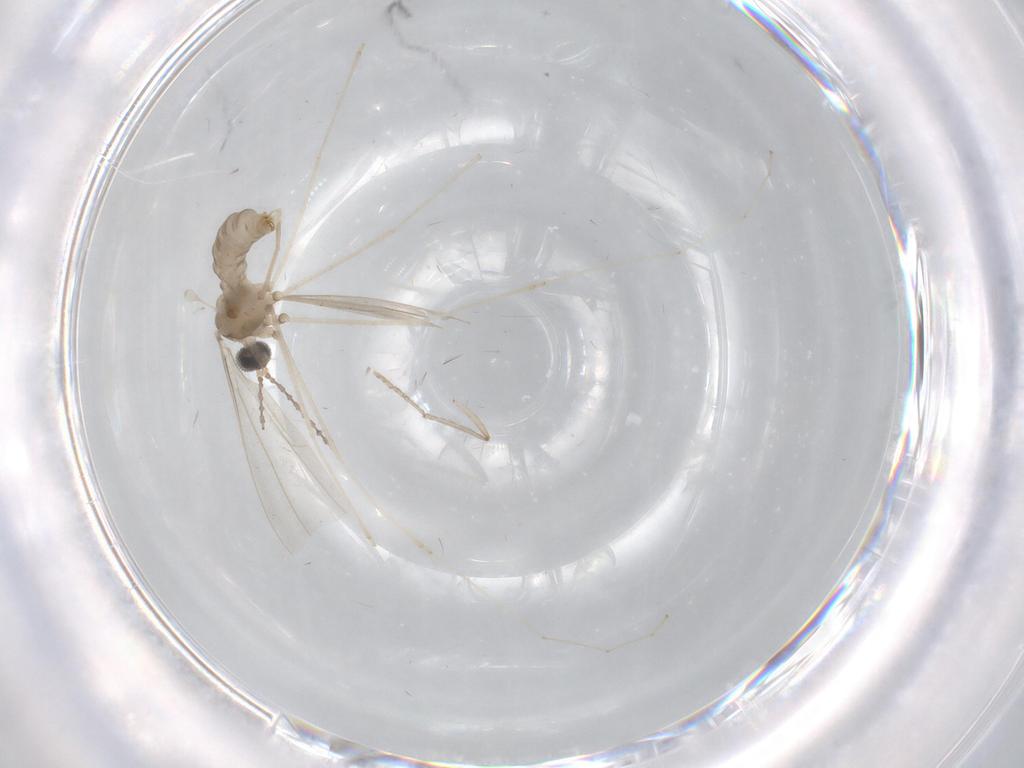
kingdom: Animalia
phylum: Arthropoda
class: Insecta
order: Diptera
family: Cecidomyiidae
